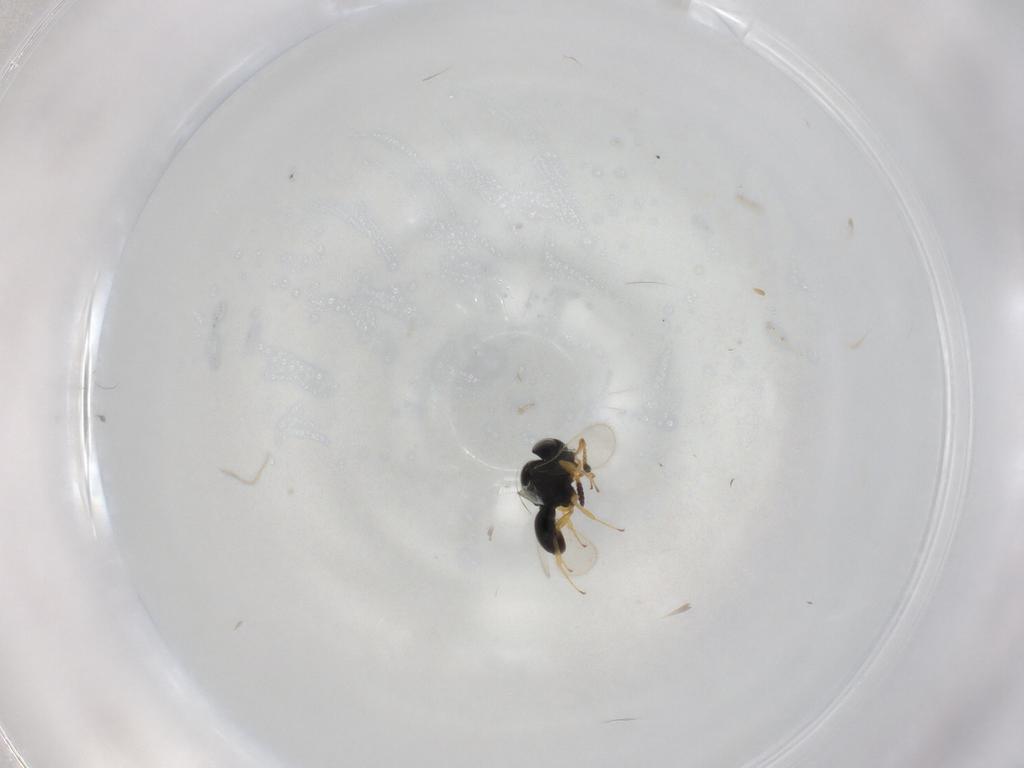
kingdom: Animalia
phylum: Arthropoda
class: Insecta
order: Hymenoptera
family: Scelionidae
